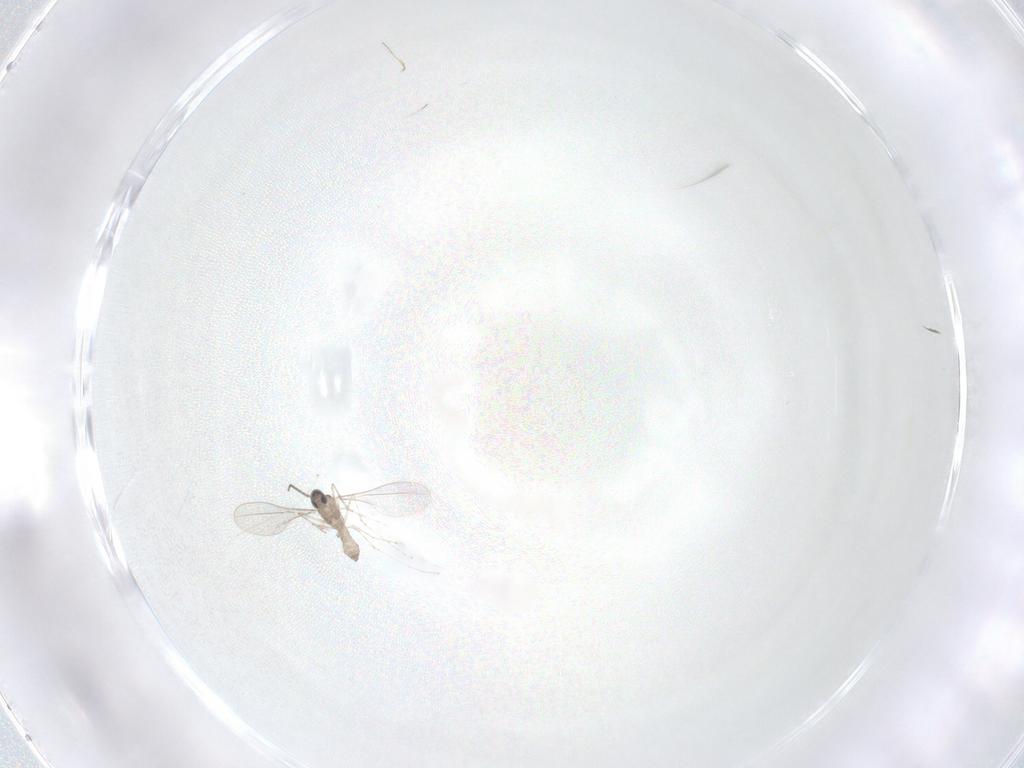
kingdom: Animalia
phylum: Arthropoda
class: Insecta
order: Diptera
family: Cecidomyiidae
